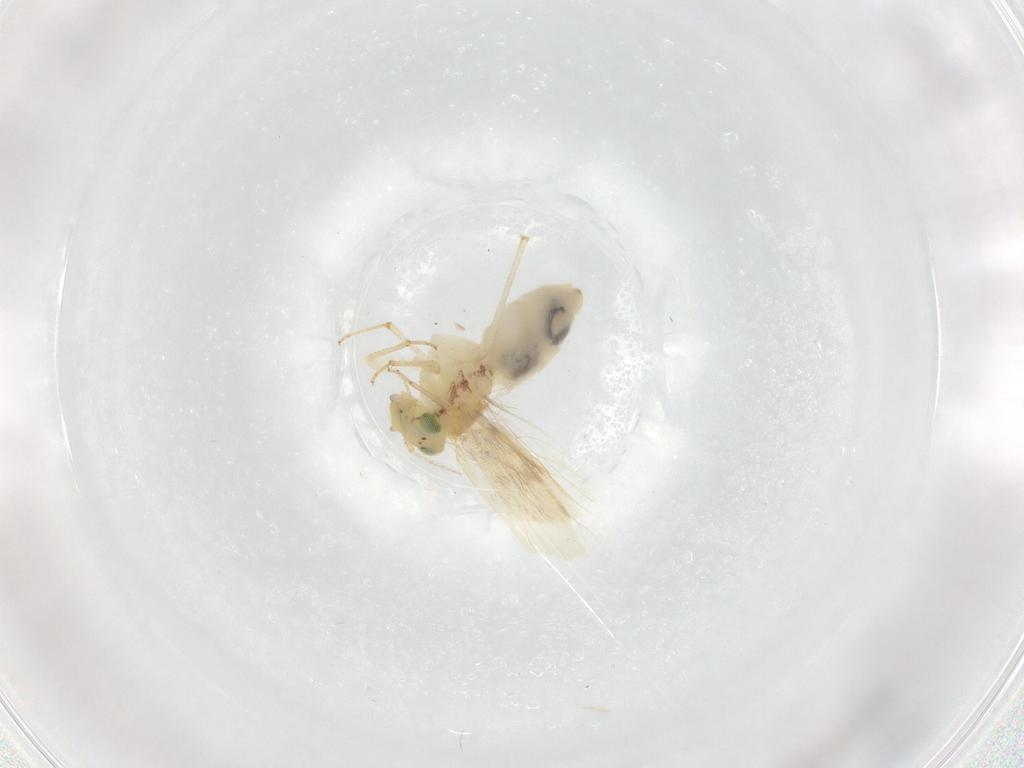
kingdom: Animalia
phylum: Arthropoda
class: Insecta
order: Psocodea
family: Lepidopsocidae
